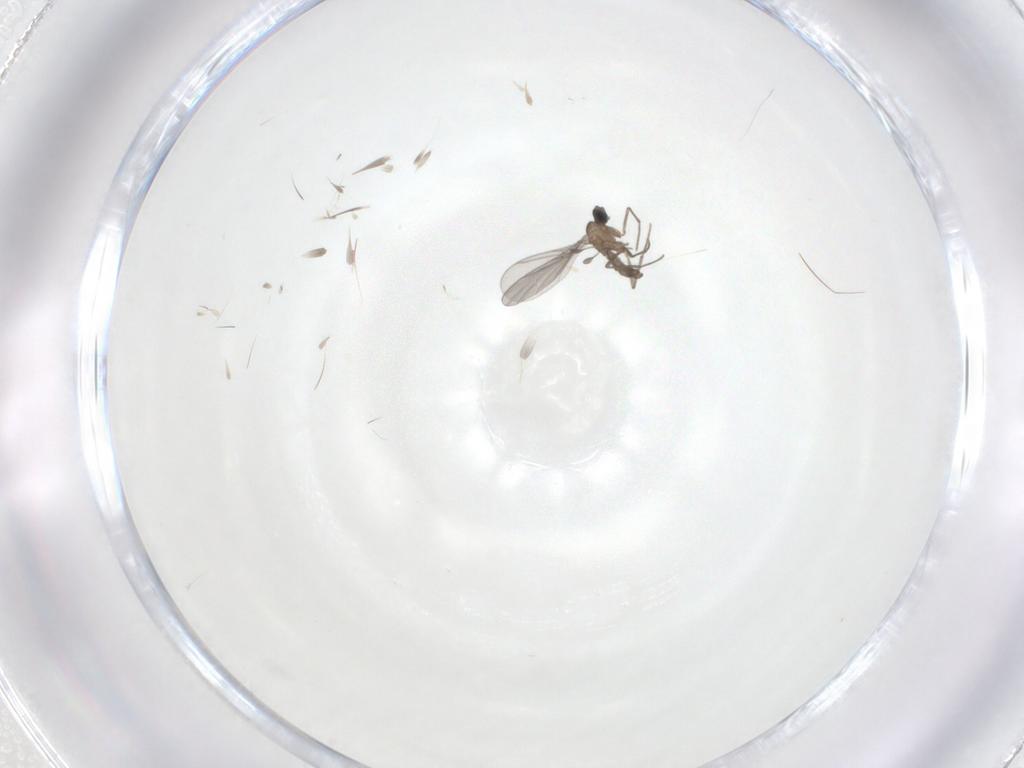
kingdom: Animalia
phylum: Arthropoda
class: Insecta
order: Diptera
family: Chironomidae
